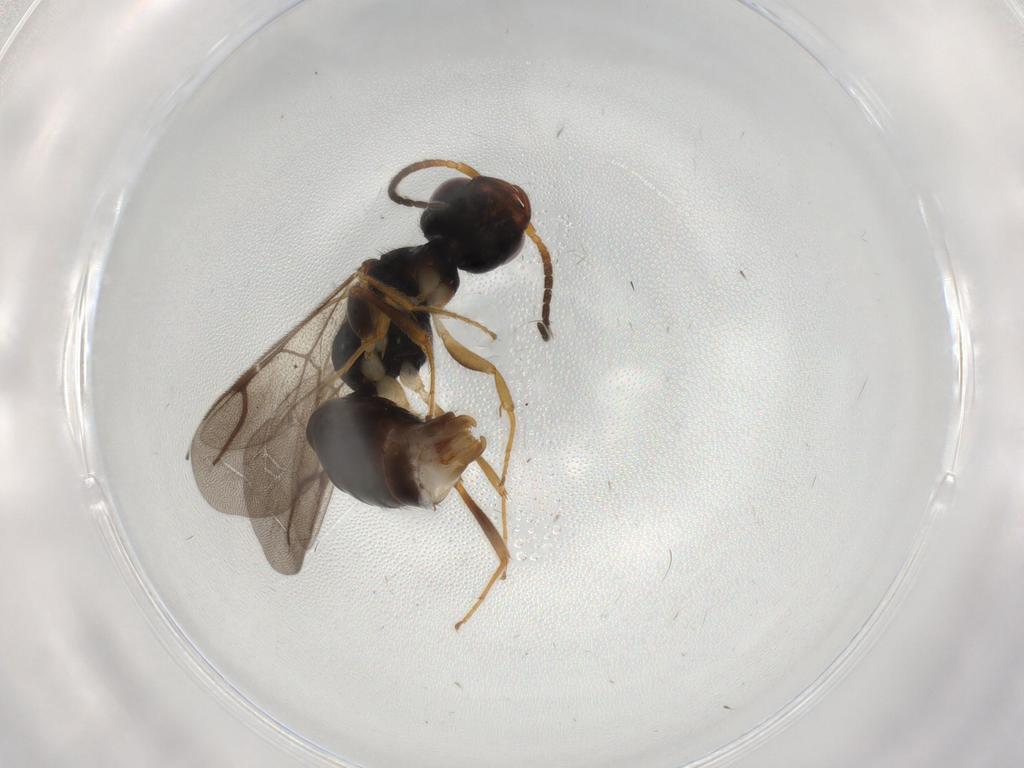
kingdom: Animalia
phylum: Arthropoda
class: Insecta
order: Hymenoptera
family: Bethylidae
